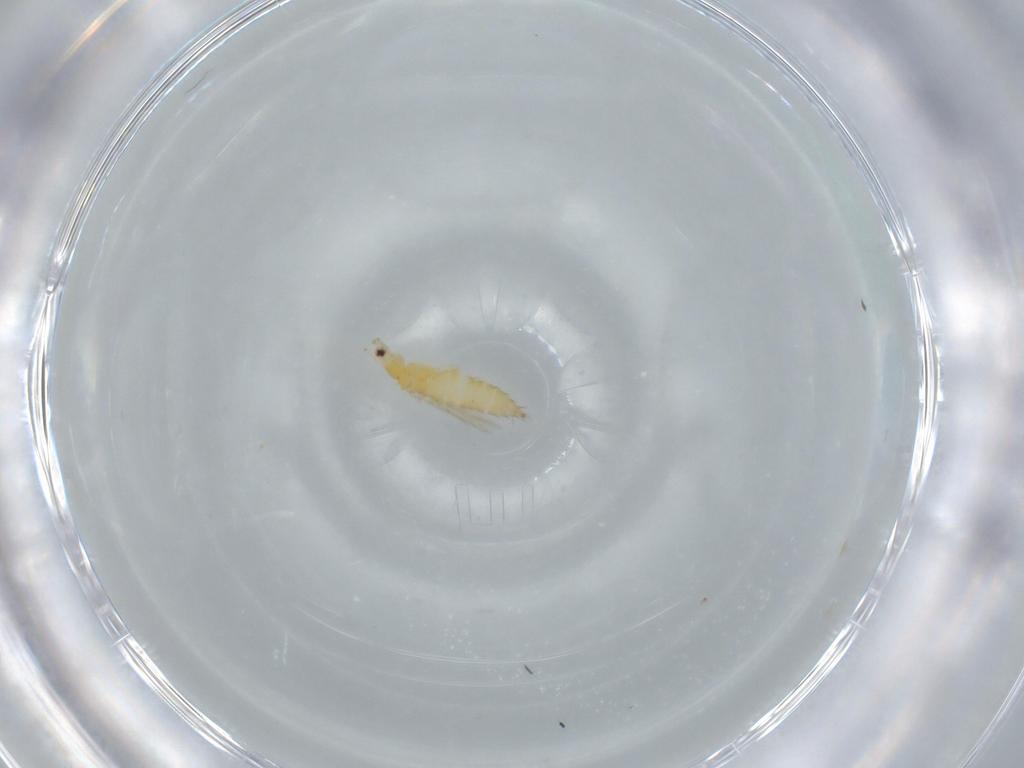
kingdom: Animalia
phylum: Arthropoda
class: Insecta
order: Thysanoptera
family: Thripidae
